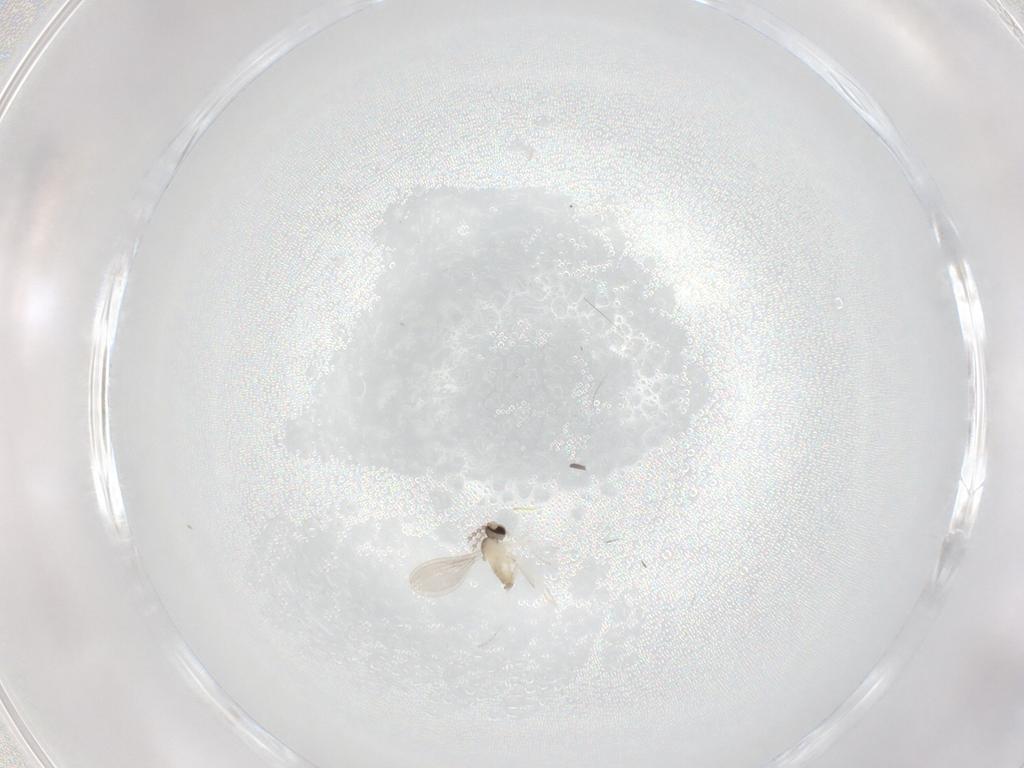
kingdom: Animalia
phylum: Arthropoda
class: Insecta
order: Diptera
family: Cecidomyiidae
